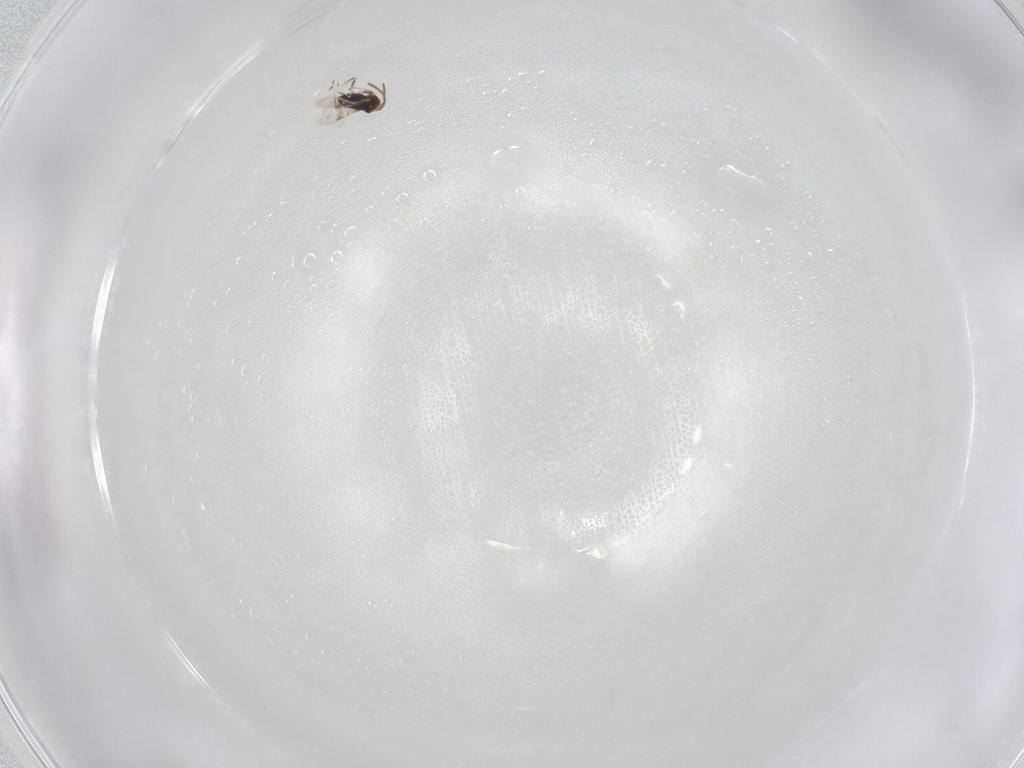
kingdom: Animalia
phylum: Arthropoda
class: Insecta
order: Hymenoptera
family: Azotidae
